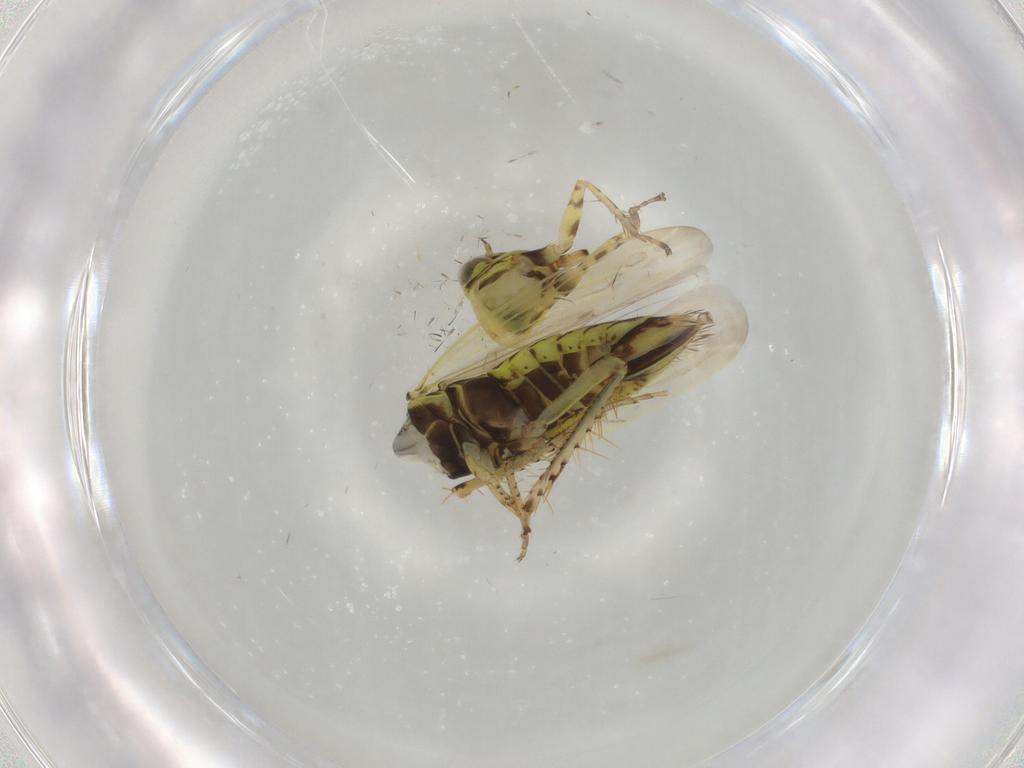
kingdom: Animalia
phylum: Arthropoda
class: Insecta
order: Hemiptera
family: Cicadellidae
